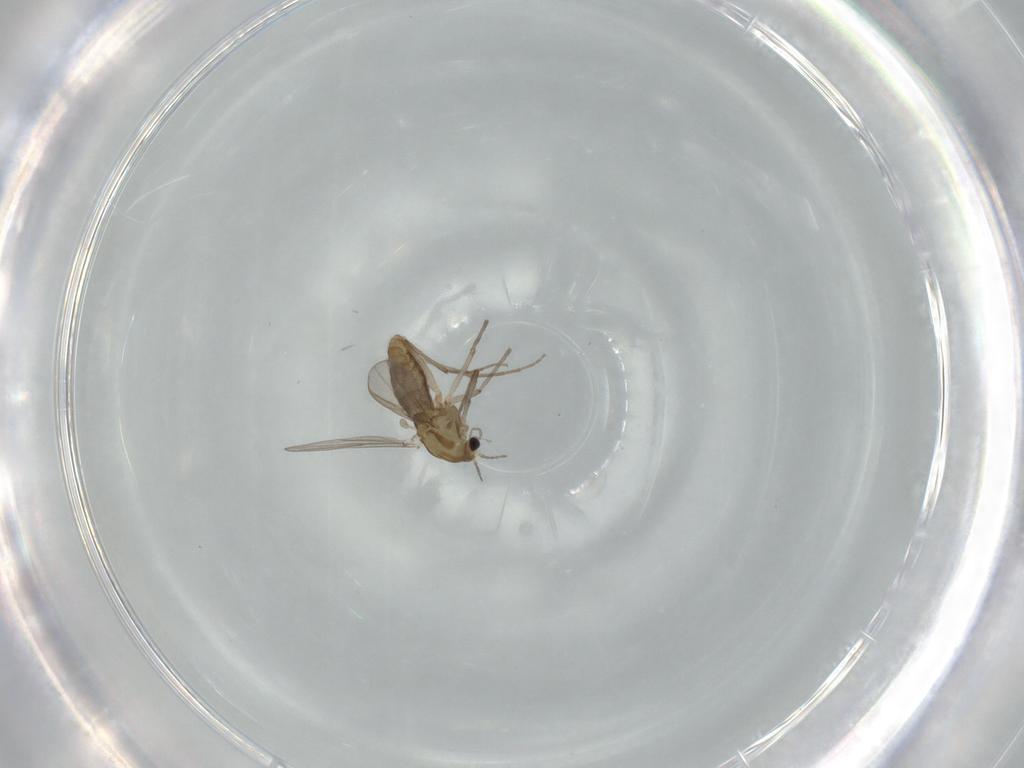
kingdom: Animalia
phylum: Arthropoda
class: Insecta
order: Diptera
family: Chironomidae
